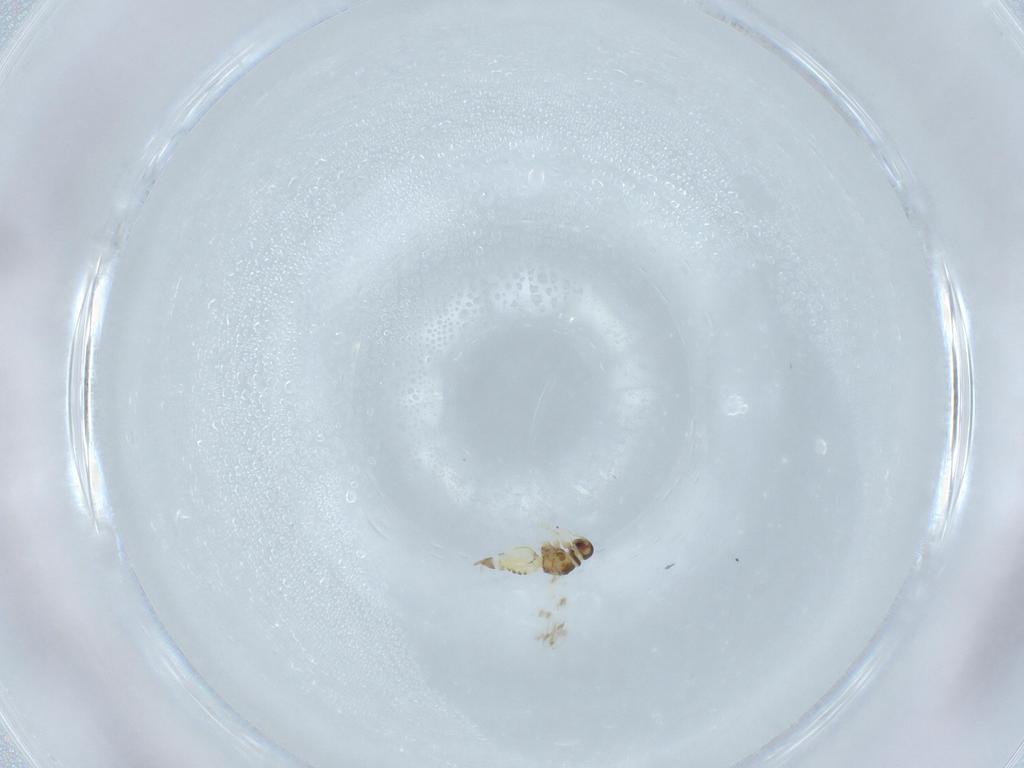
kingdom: Animalia
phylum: Arthropoda
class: Insecta
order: Hemiptera
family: Aleyrodidae
